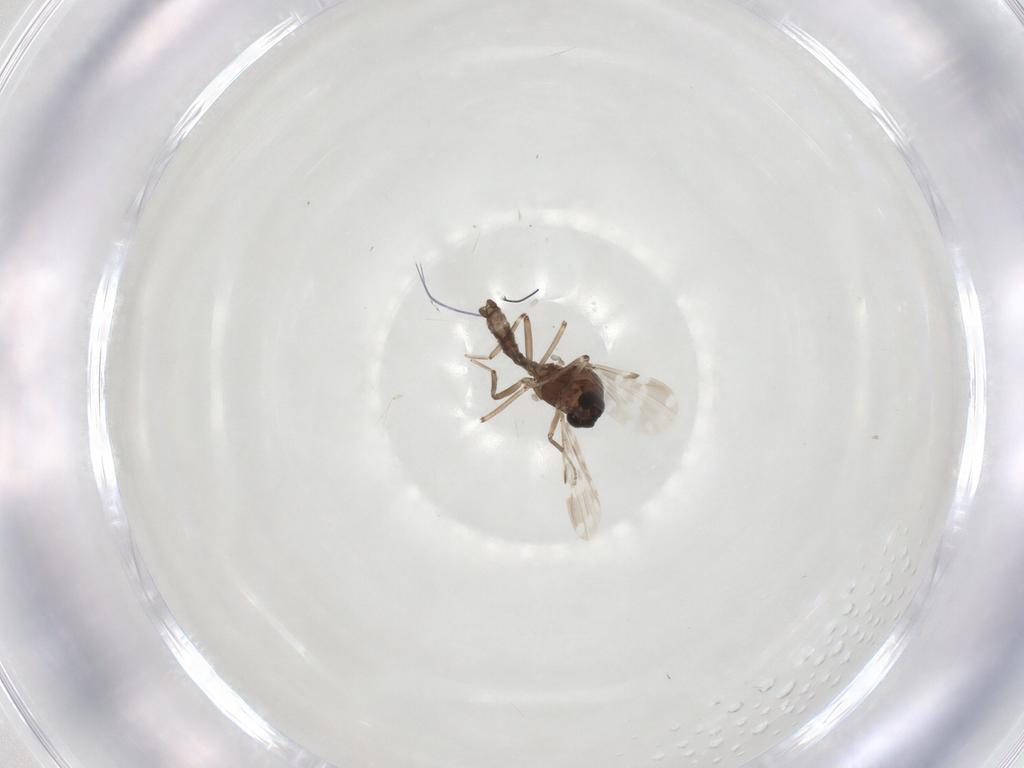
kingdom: Animalia
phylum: Arthropoda
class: Insecta
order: Diptera
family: Ceratopogonidae
